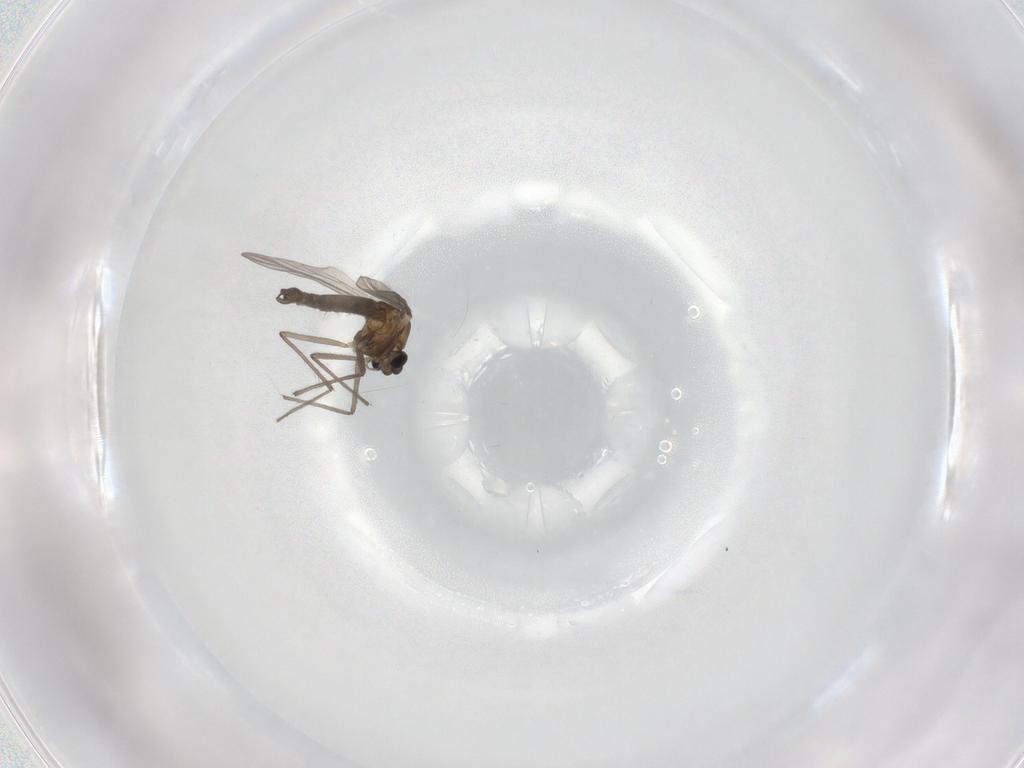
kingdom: Animalia
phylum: Arthropoda
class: Insecta
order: Diptera
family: Chironomidae
